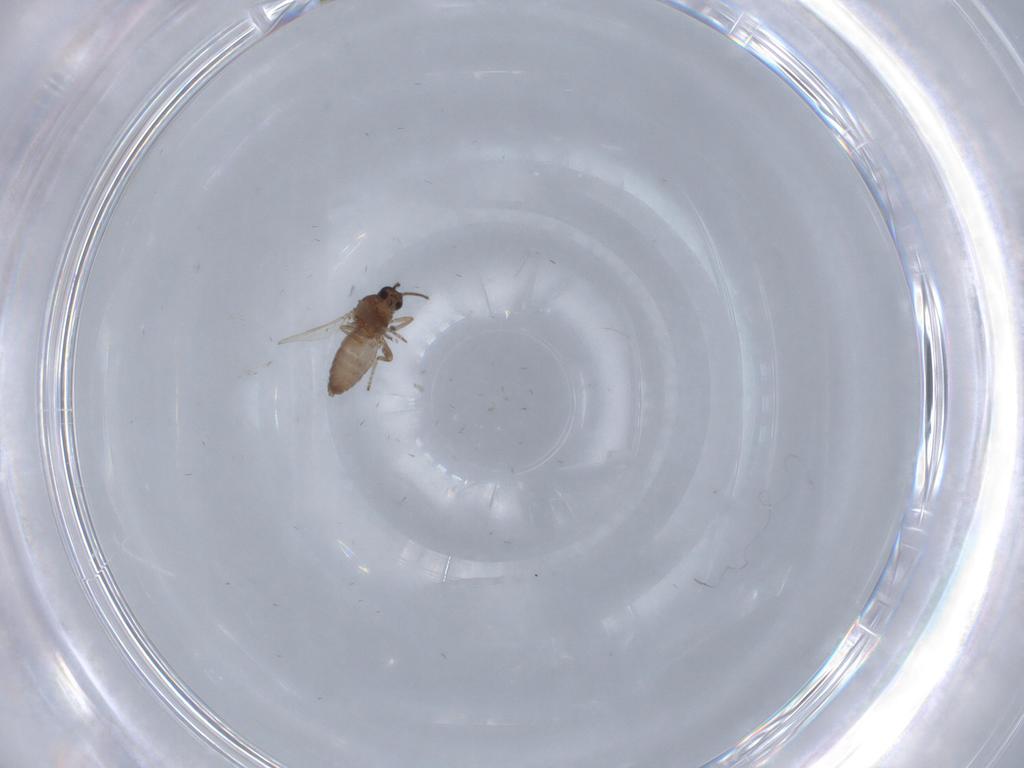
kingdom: Animalia
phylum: Arthropoda
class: Insecta
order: Diptera
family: Ceratopogonidae
